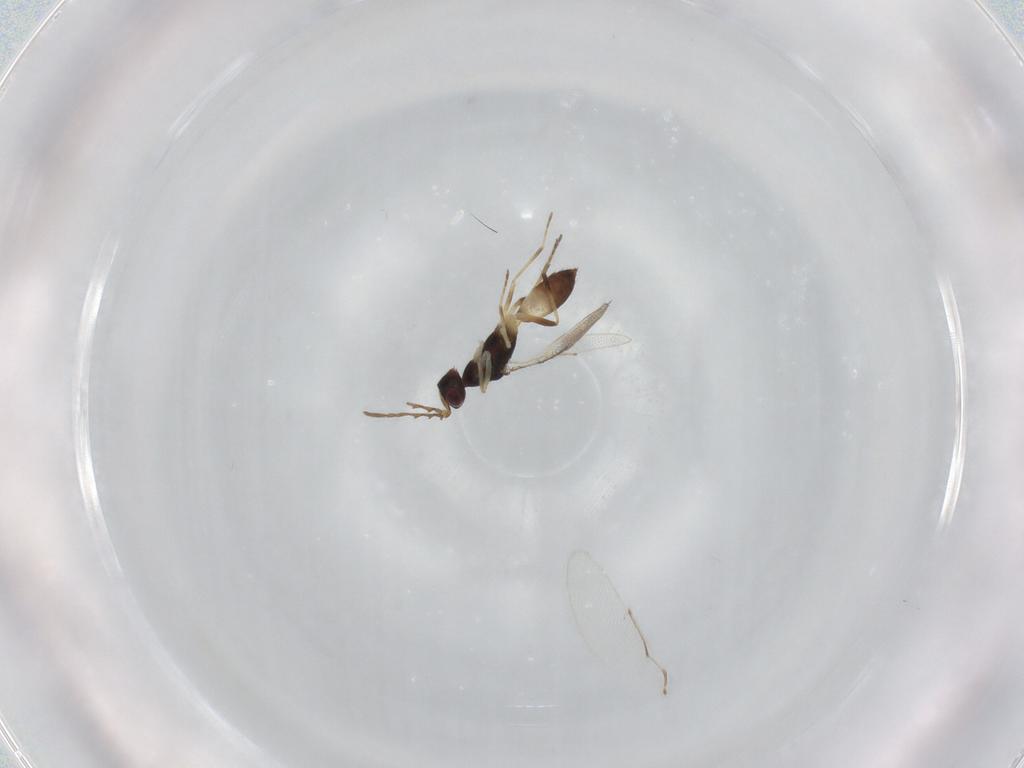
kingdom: Animalia
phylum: Arthropoda
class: Insecta
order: Hymenoptera
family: Eulophidae
